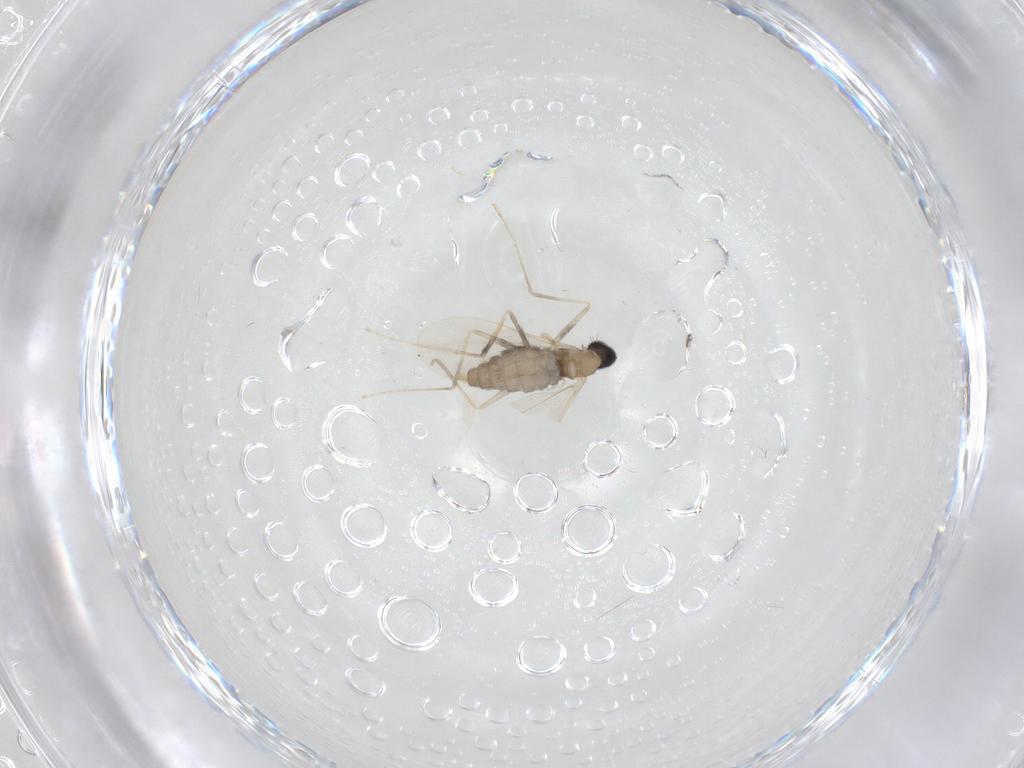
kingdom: Animalia
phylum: Arthropoda
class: Insecta
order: Diptera
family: Cecidomyiidae
